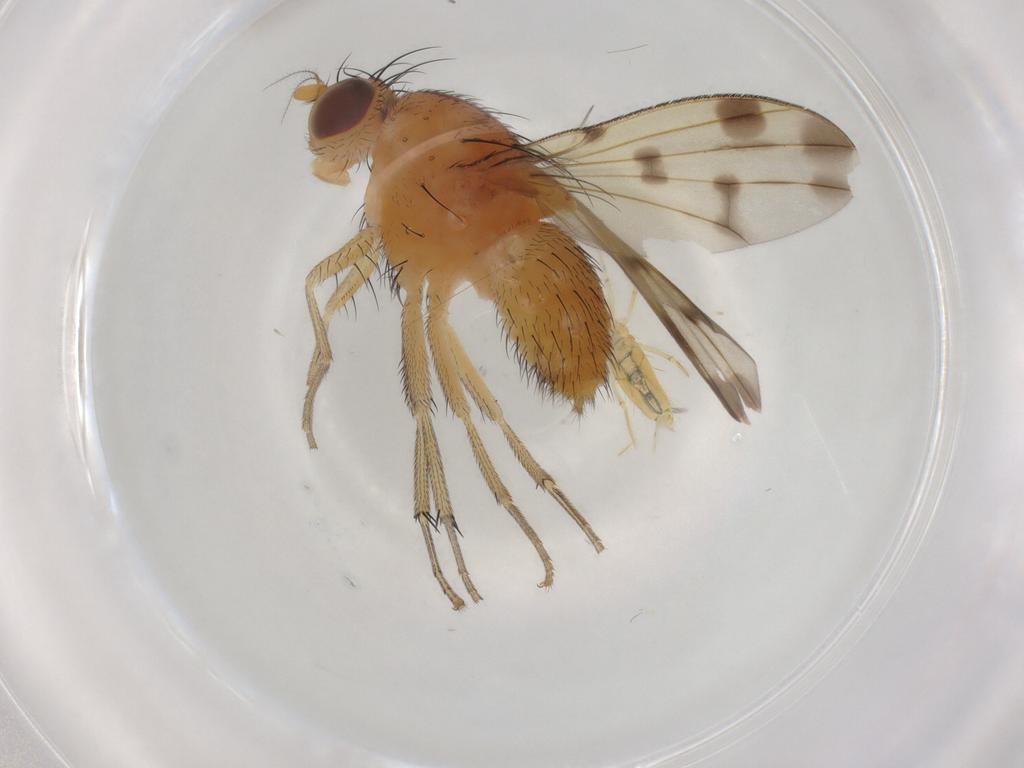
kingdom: Animalia
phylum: Arthropoda
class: Insecta
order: Diptera
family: Lauxaniidae
